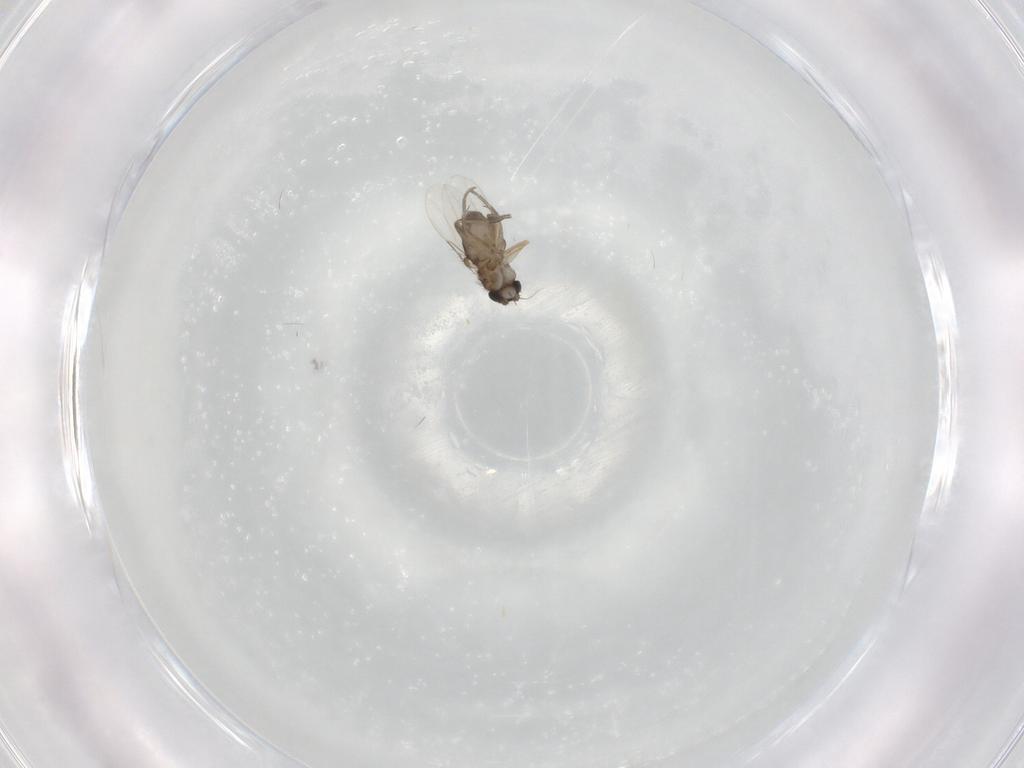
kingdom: Animalia
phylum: Arthropoda
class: Insecta
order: Diptera
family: Phoridae
